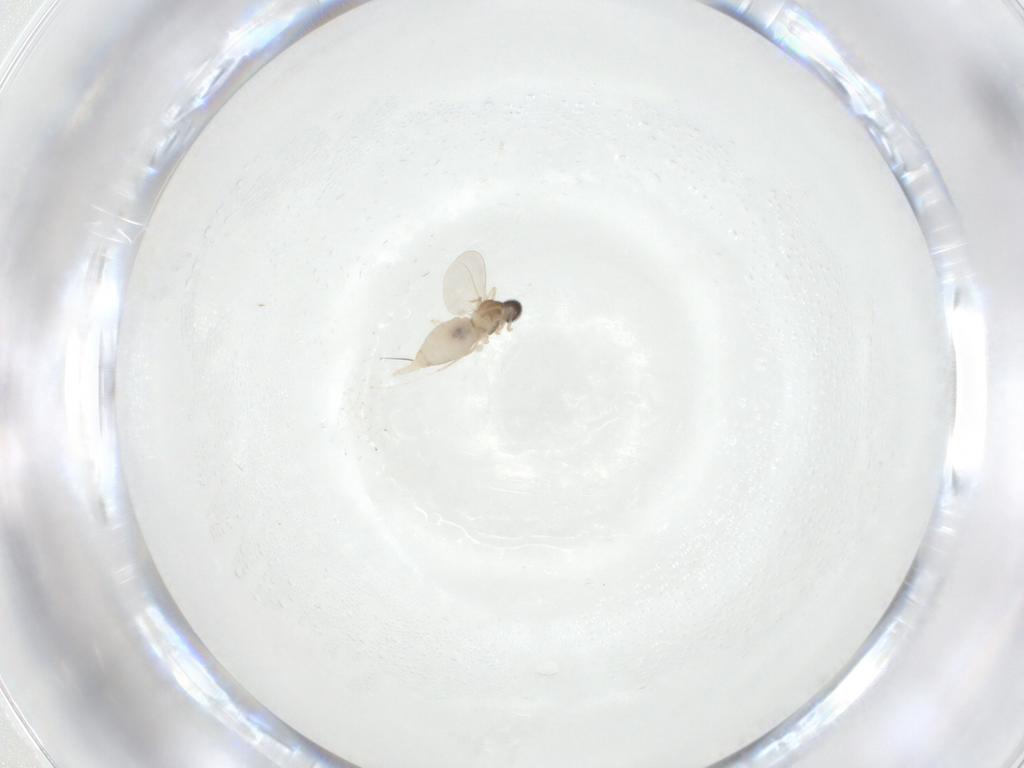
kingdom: Animalia
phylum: Arthropoda
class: Insecta
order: Diptera
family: Cecidomyiidae
